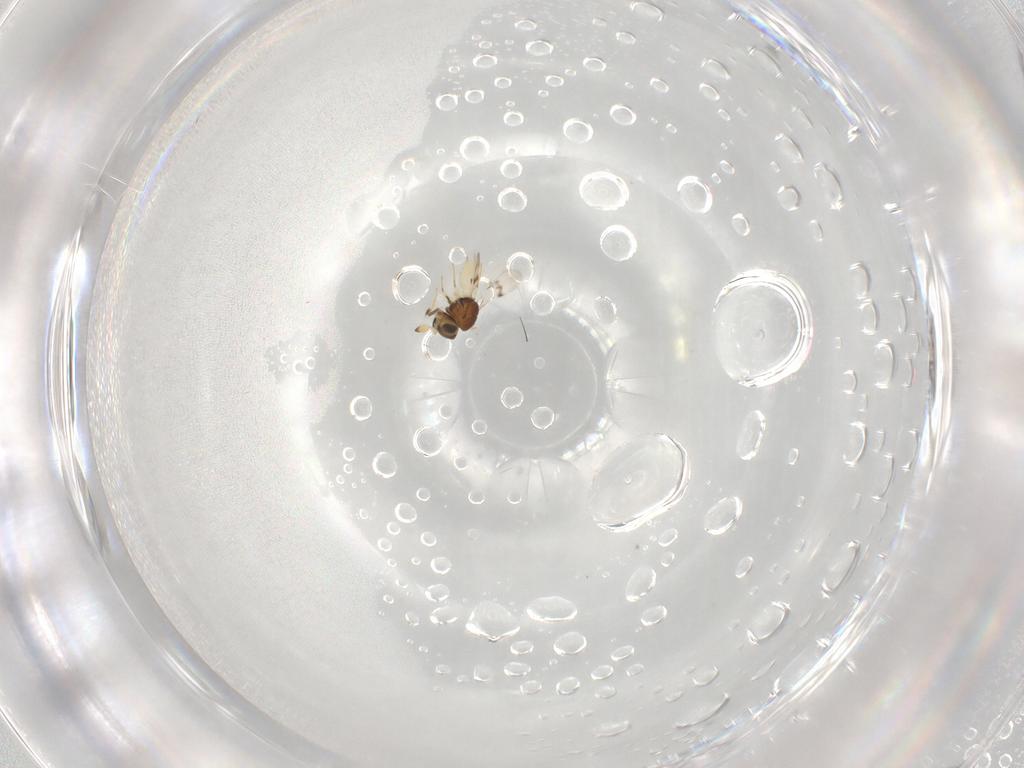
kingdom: Animalia
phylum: Arthropoda
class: Insecta
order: Hymenoptera
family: Scelionidae
